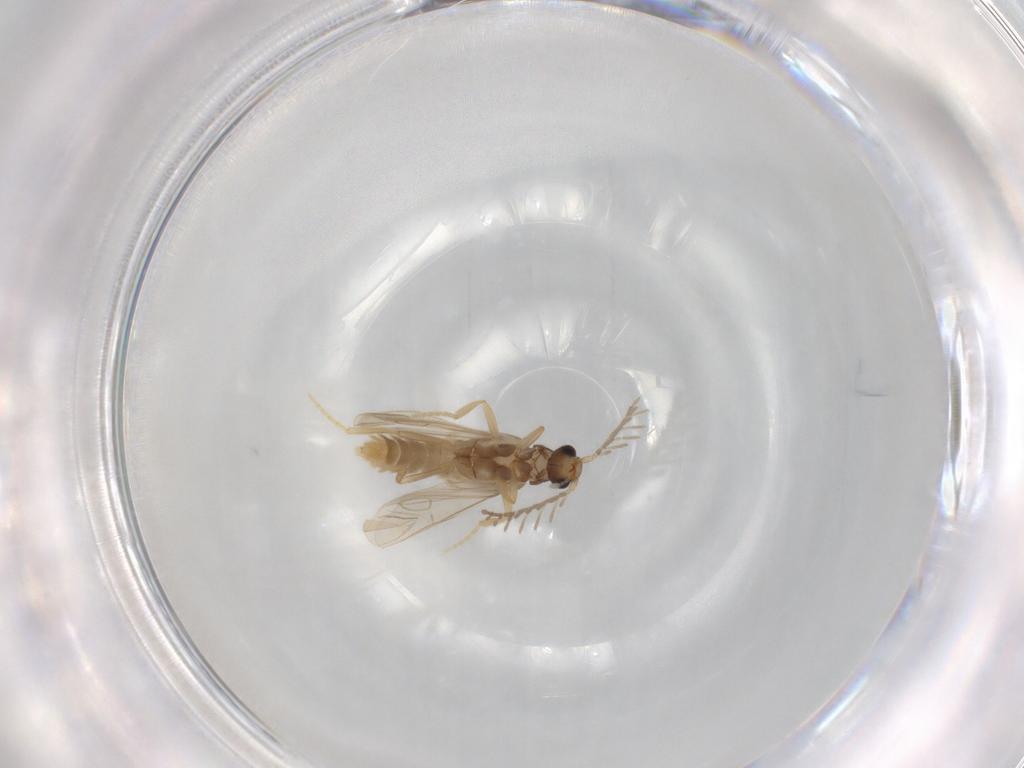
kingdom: Animalia
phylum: Arthropoda
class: Insecta
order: Coleoptera
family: Phengodidae
